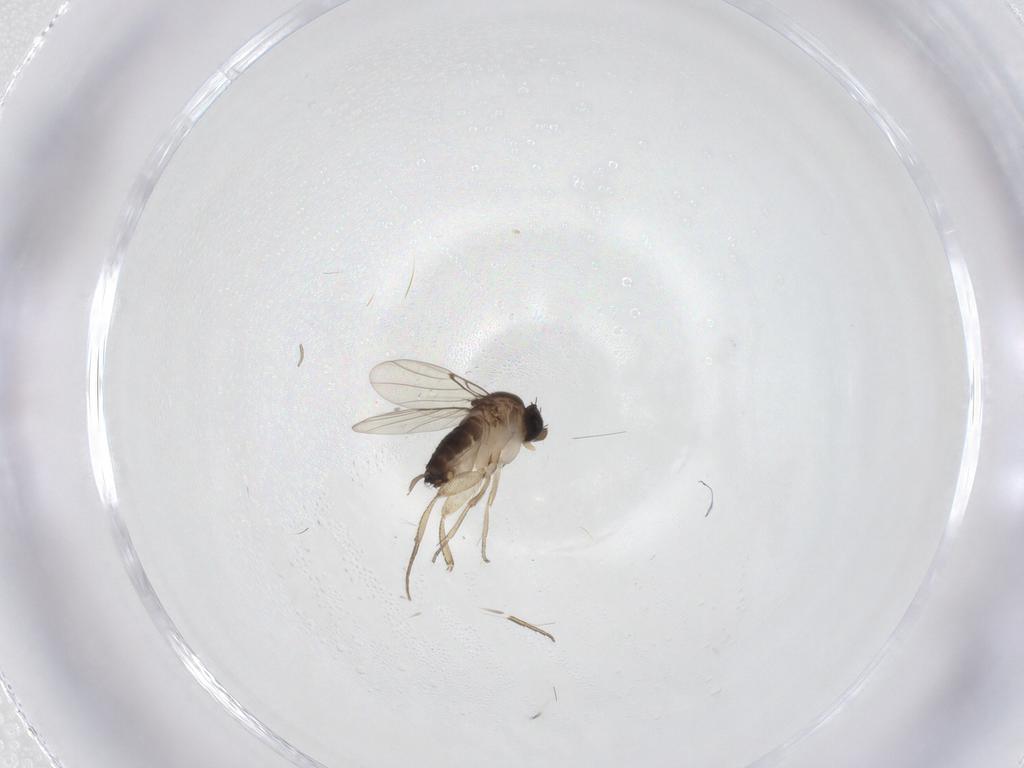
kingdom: Animalia
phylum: Arthropoda
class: Insecta
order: Diptera
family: Phoridae
